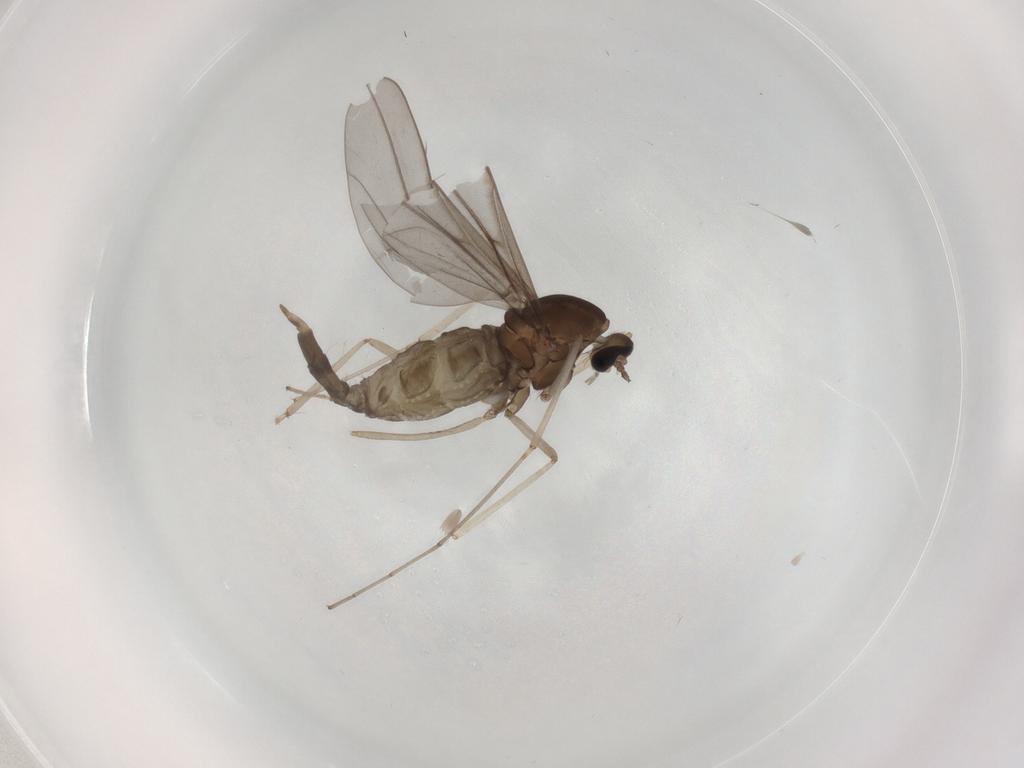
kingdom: Animalia
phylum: Arthropoda
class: Insecta
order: Diptera
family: Cecidomyiidae
